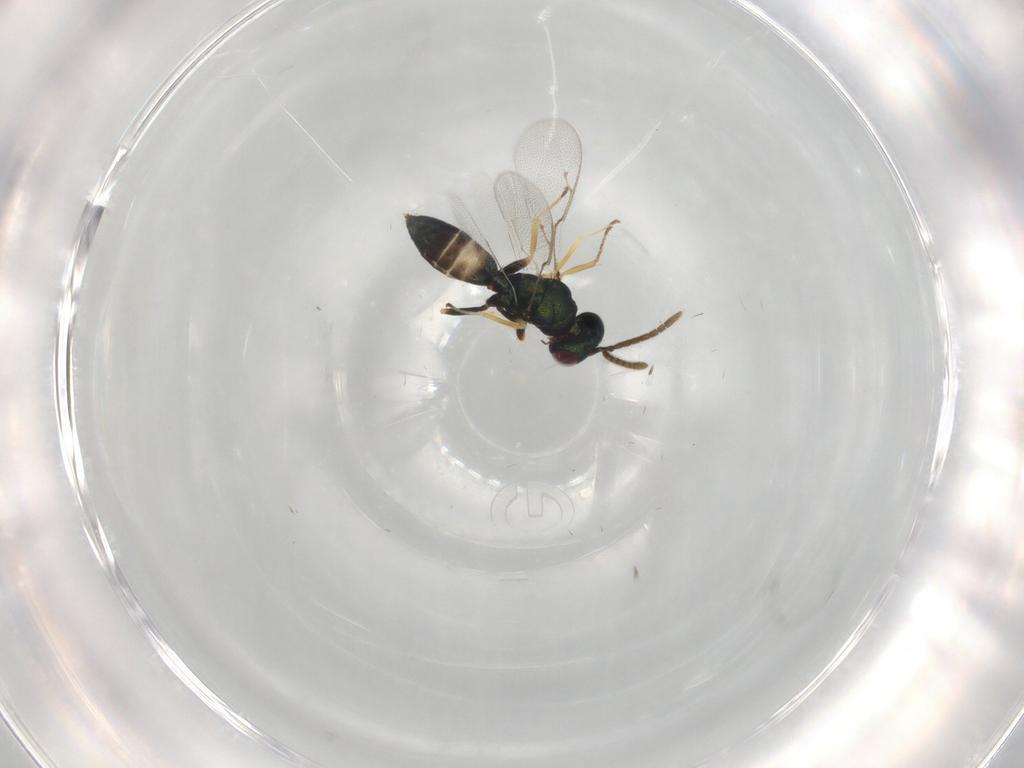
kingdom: Animalia
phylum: Arthropoda
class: Insecta
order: Hymenoptera
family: Pteromalidae
